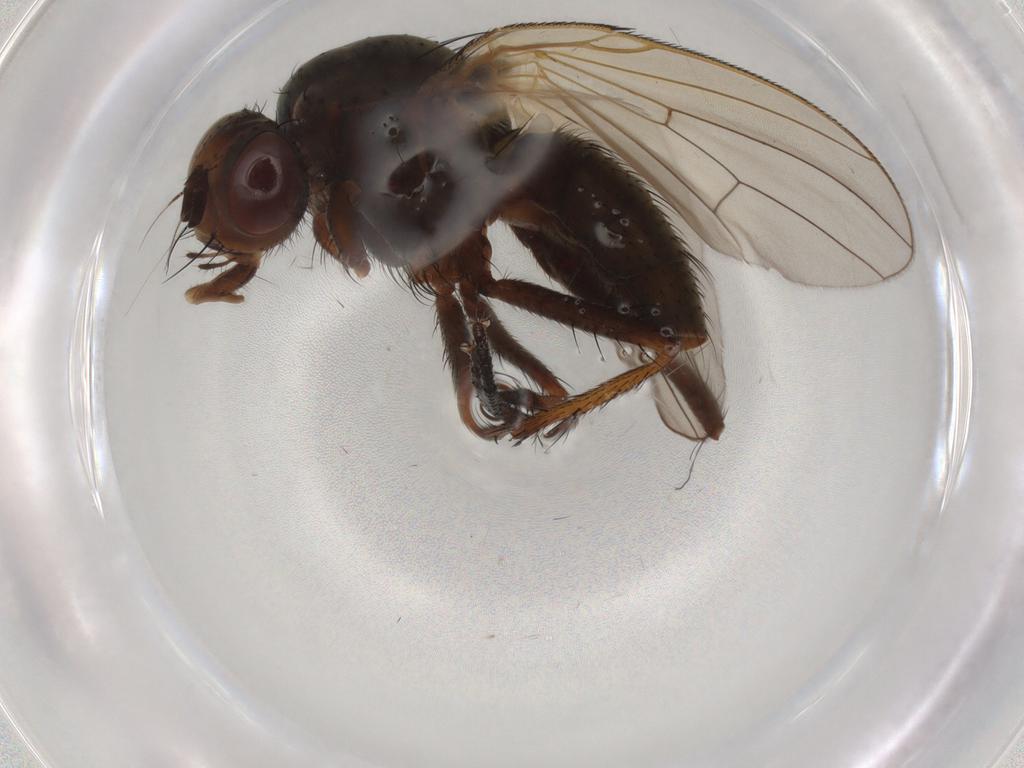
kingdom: Animalia
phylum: Arthropoda
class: Insecta
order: Diptera
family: Anthomyiidae
